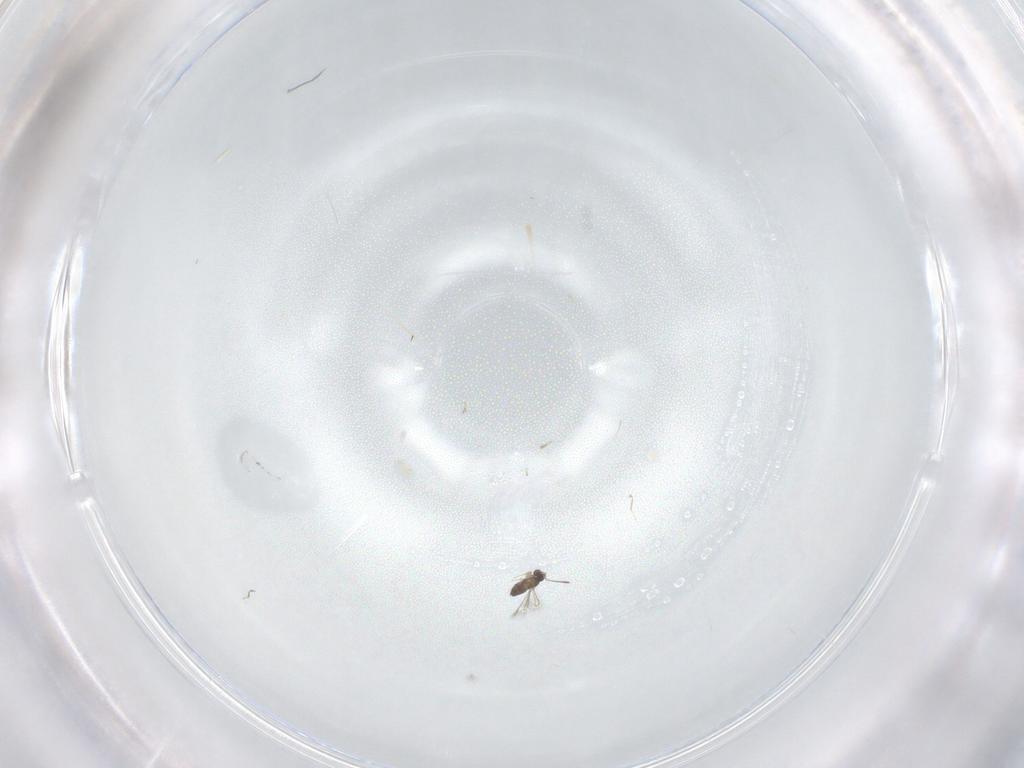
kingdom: Animalia
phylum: Arthropoda
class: Insecta
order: Hymenoptera
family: Mymaridae
